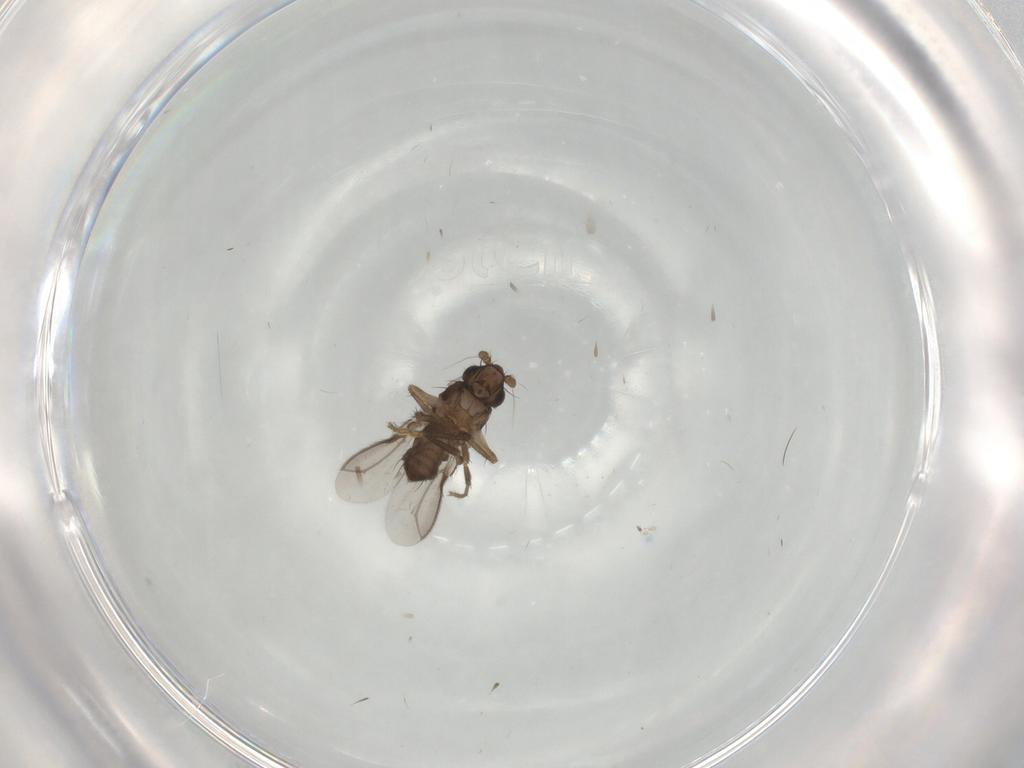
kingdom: Animalia
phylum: Arthropoda
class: Insecta
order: Diptera
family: Sphaeroceridae
